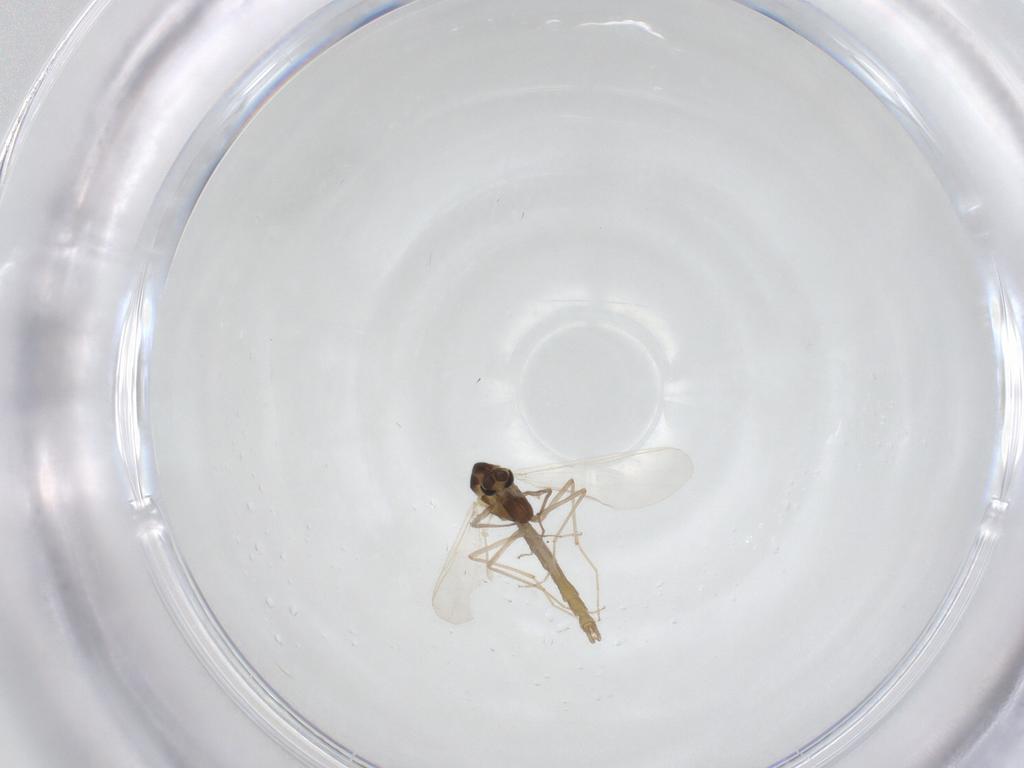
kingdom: Animalia
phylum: Arthropoda
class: Insecta
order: Diptera
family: Chironomidae
